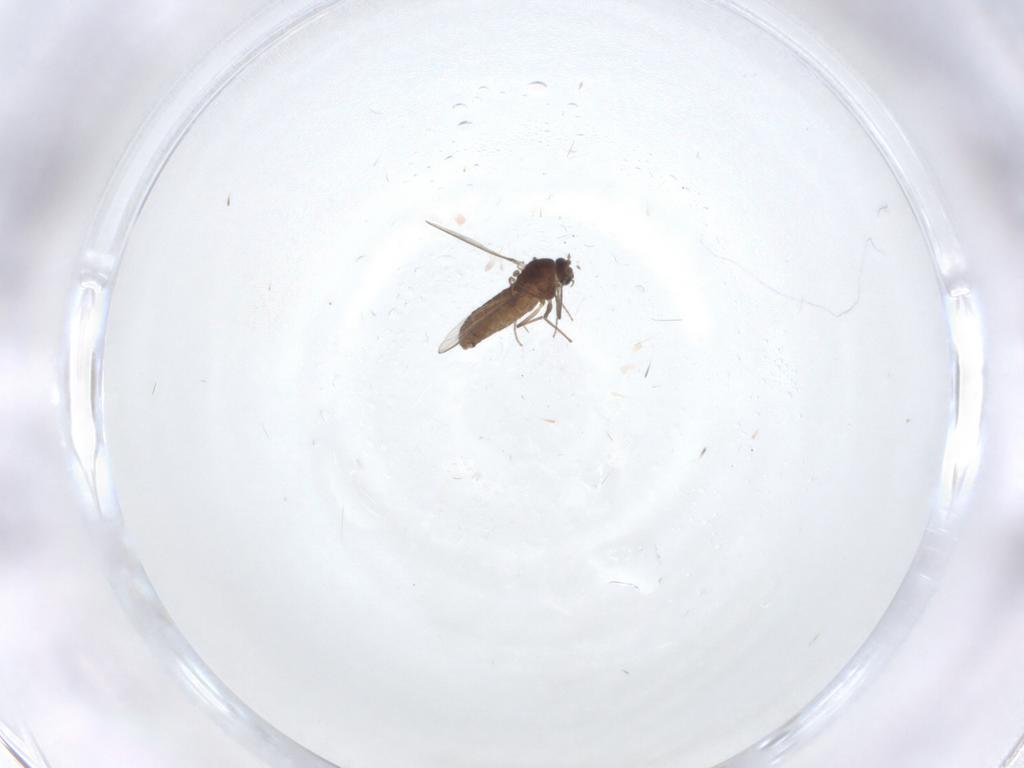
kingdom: Animalia
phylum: Arthropoda
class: Insecta
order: Diptera
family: Chironomidae
